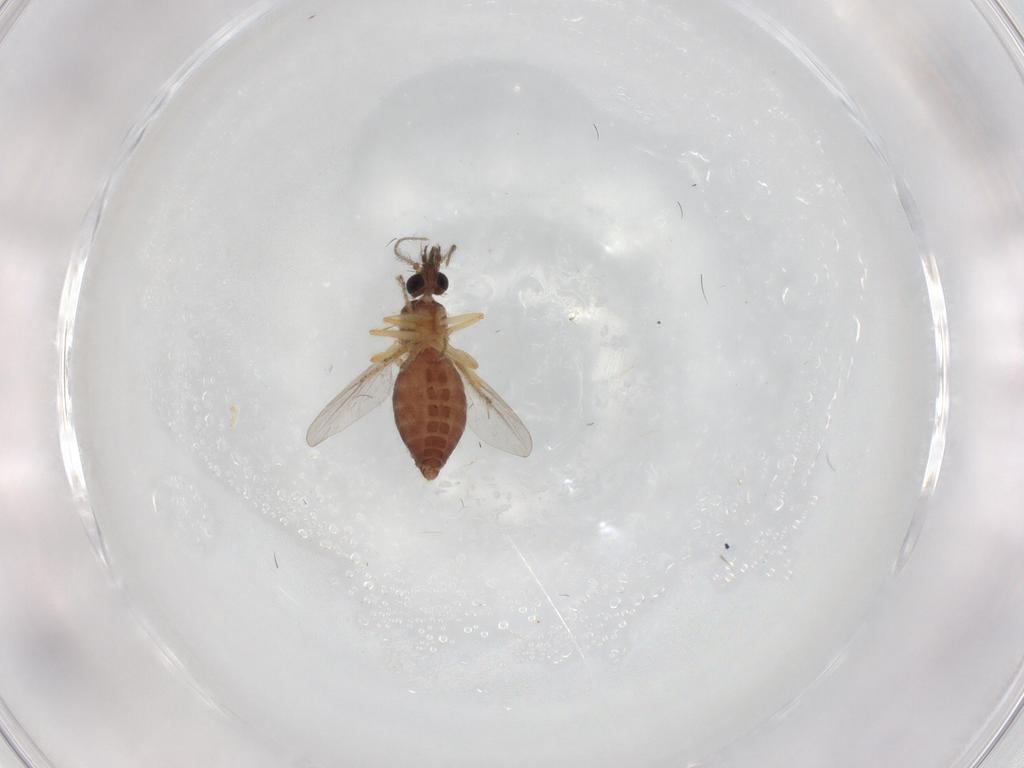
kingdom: Animalia
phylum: Arthropoda
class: Insecta
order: Diptera
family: Ceratopogonidae
